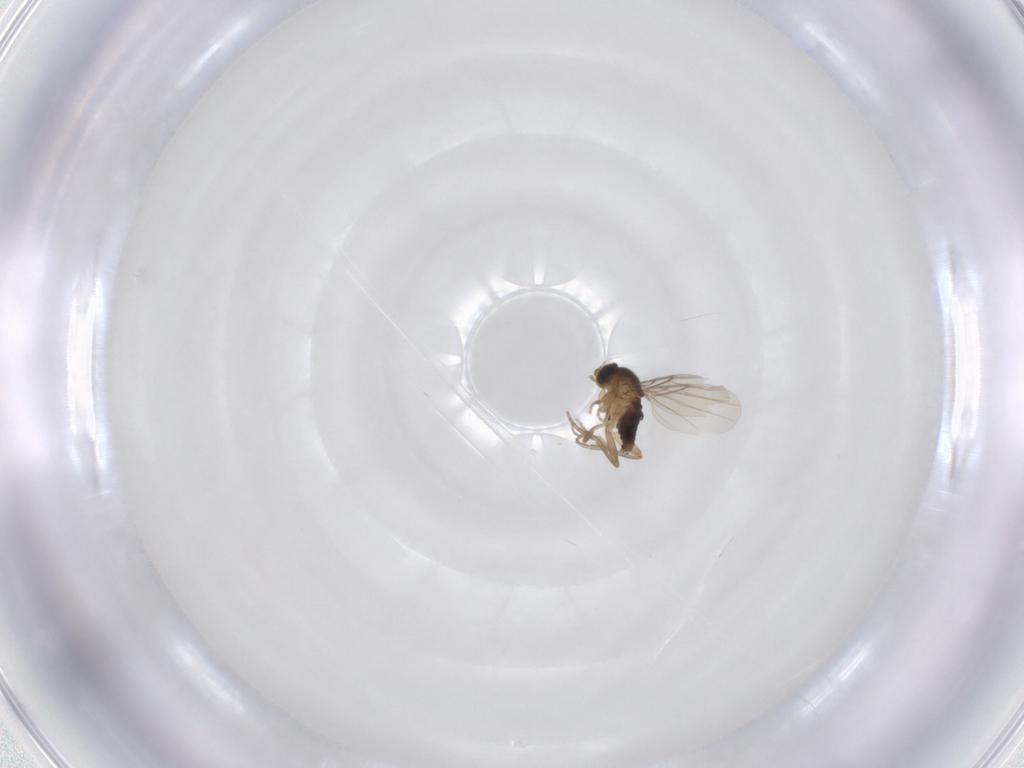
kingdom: Animalia
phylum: Arthropoda
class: Insecta
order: Diptera
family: Phoridae
